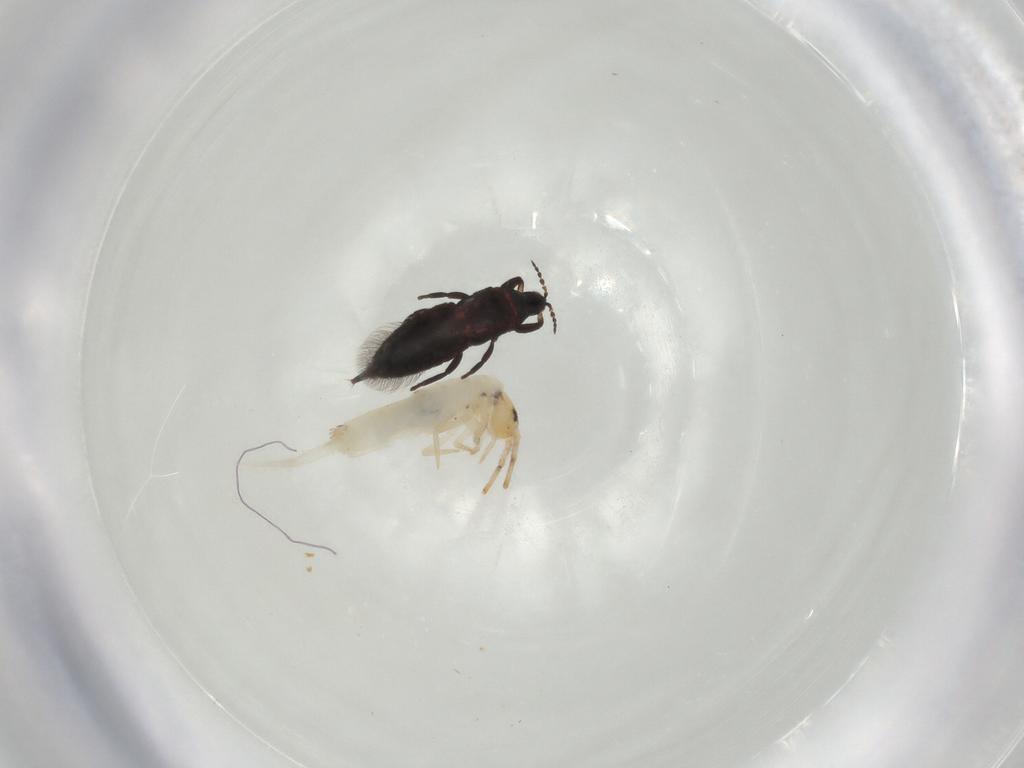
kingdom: Animalia
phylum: Arthropoda
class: Insecta
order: Thysanoptera
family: Phlaeothripidae
